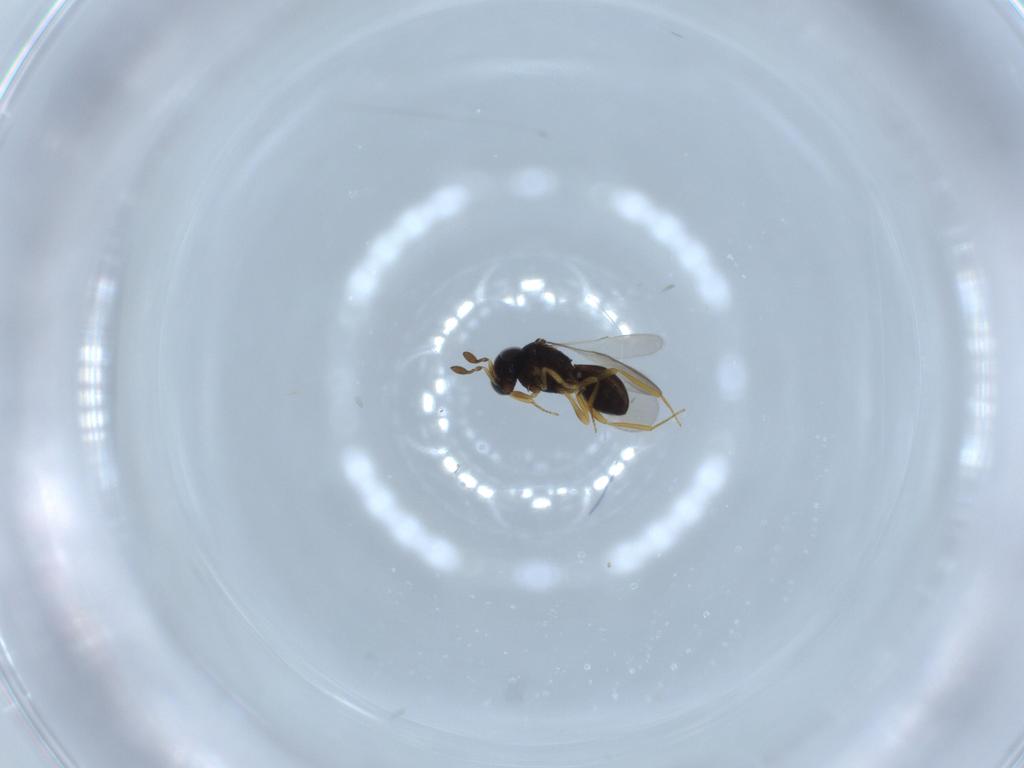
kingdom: Animalia
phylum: Arthropoda
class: Insecta
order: Hymenoptera
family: Scelionidae
